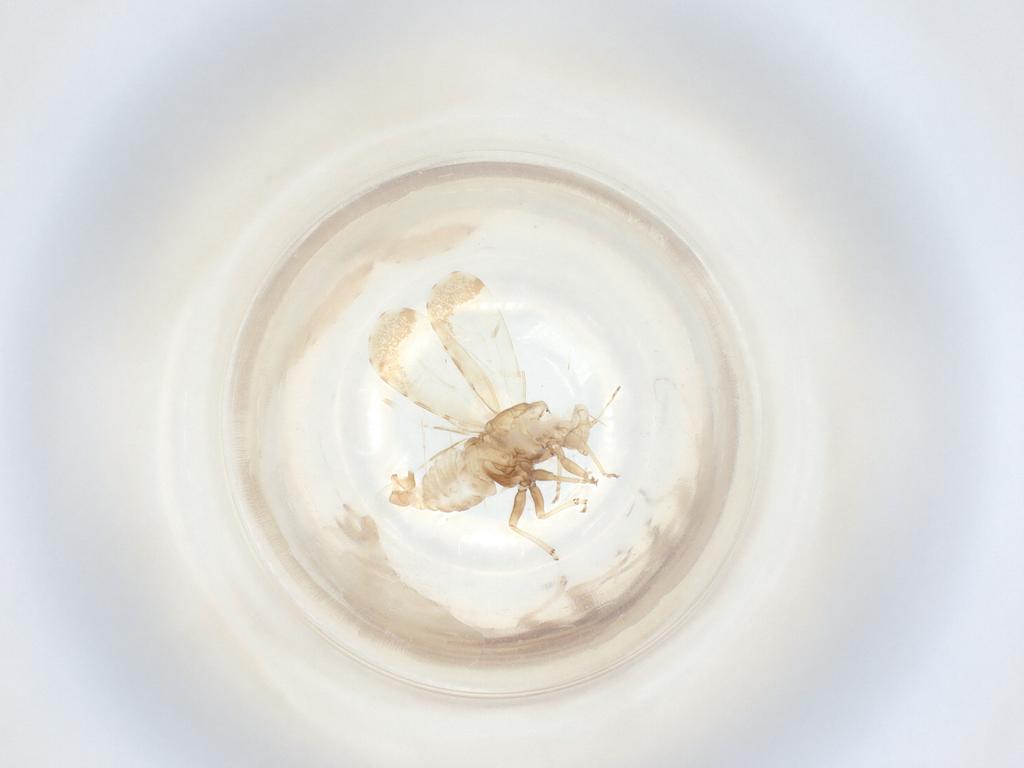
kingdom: Animalia
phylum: Arthropoda
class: Insecta
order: Hemiptera
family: Psyllidae
